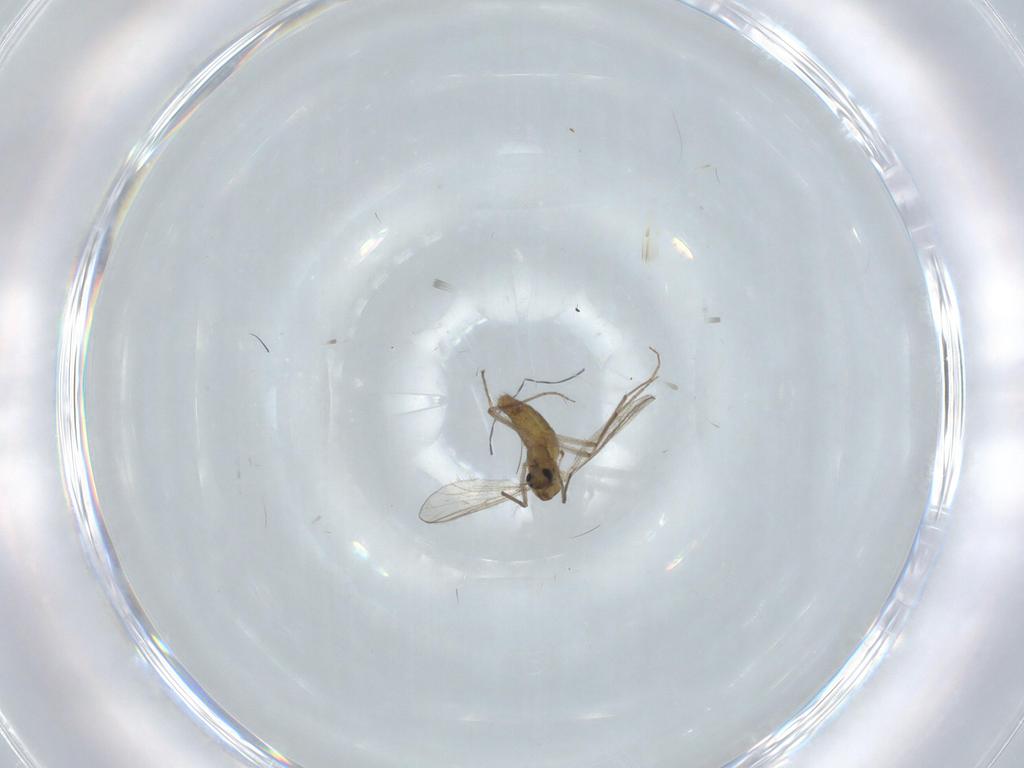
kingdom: Animalia
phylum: Arthropoda
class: Insecta
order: Diptera
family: Chironomidae
